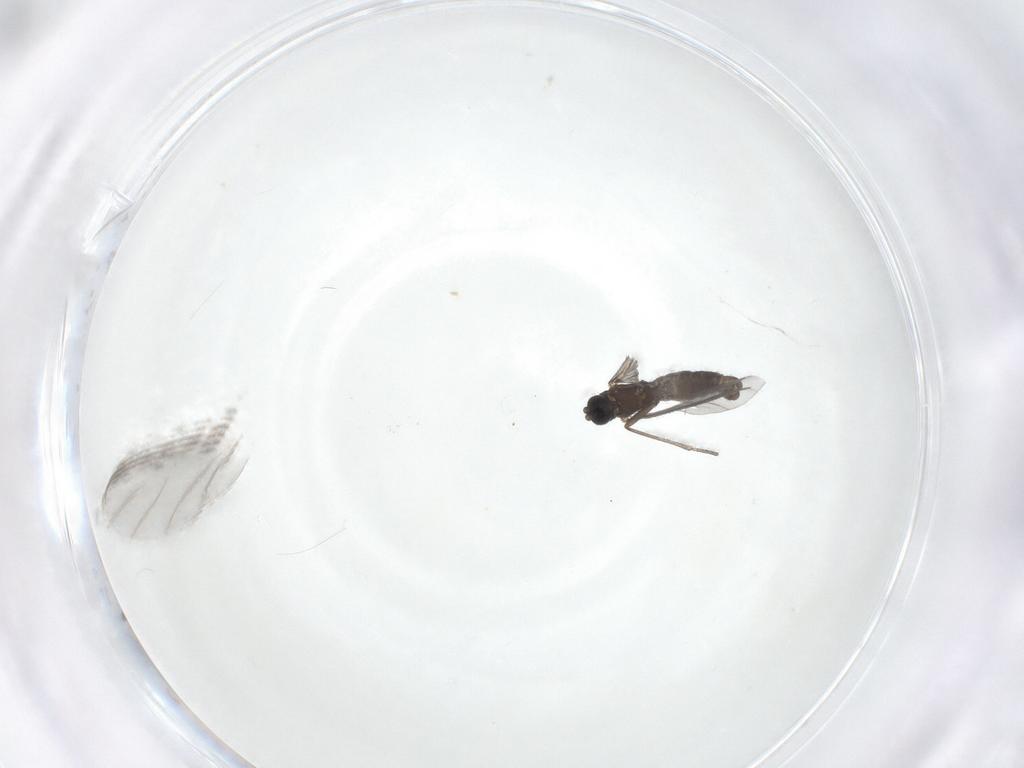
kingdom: Animalia
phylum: Arthropoda
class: Insecta
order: Diptera
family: Sciaridae
